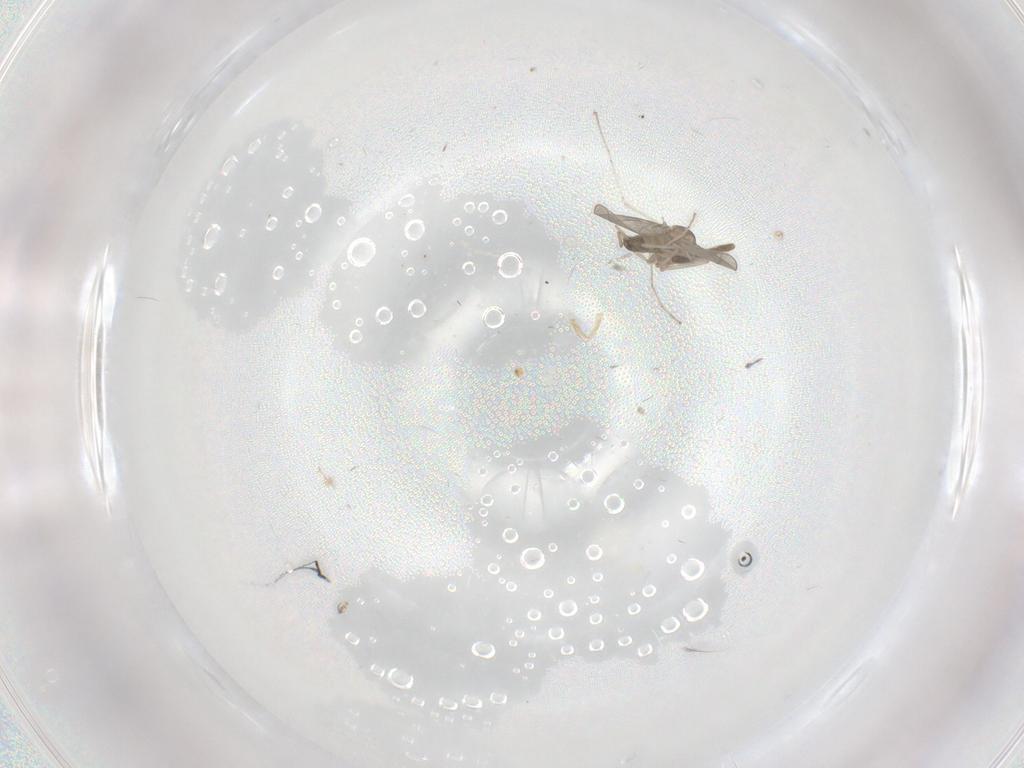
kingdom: Animalia
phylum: Arthropoda
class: Insecta
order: Diptera
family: Cecidomyiidae
